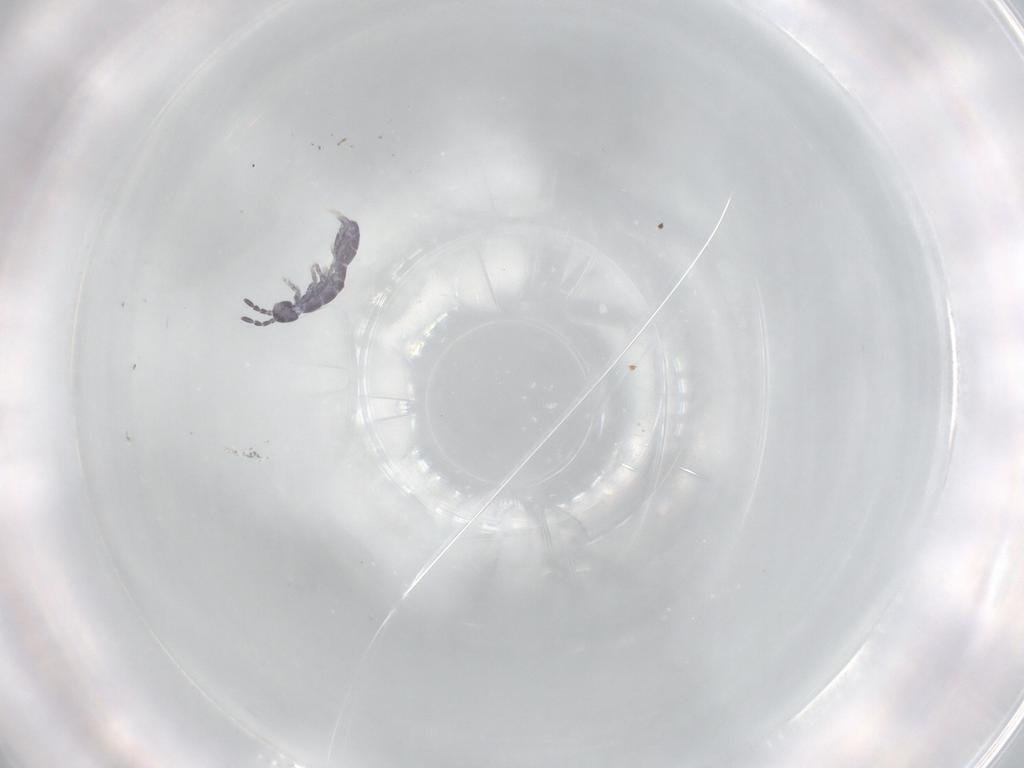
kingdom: Animalia
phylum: Arthropoda
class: Collembola
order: Entomobryomorpha
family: Isotomidae
